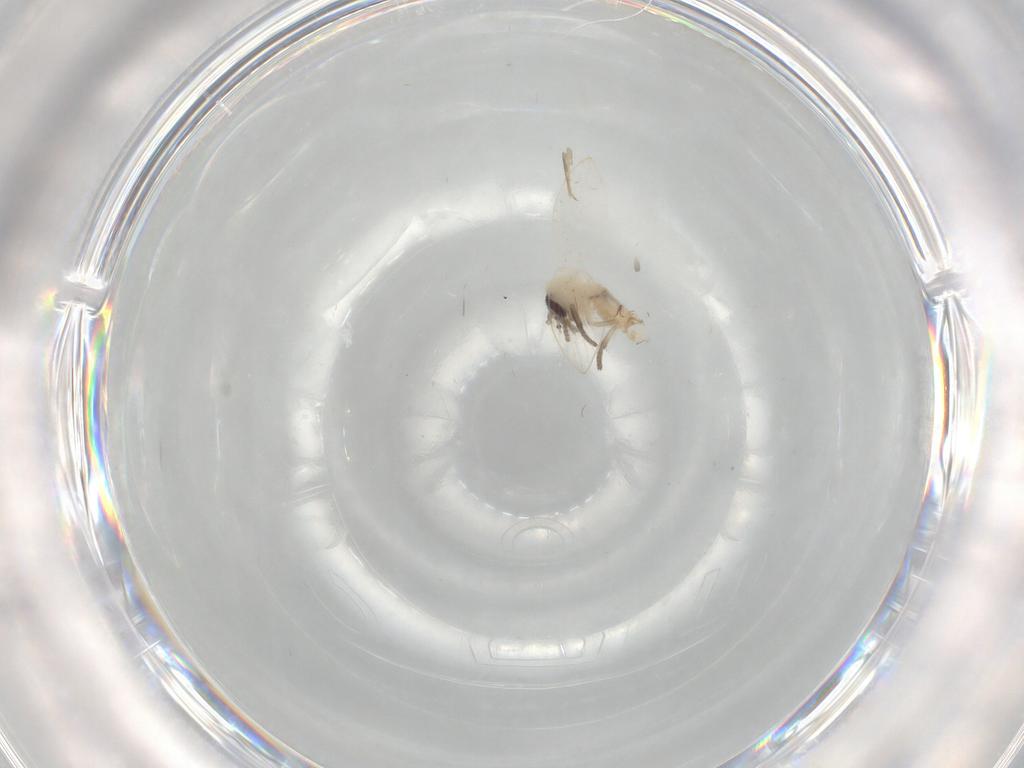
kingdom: Animalia
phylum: Arthropoda
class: Insecta
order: Diptera
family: Psychodidae
